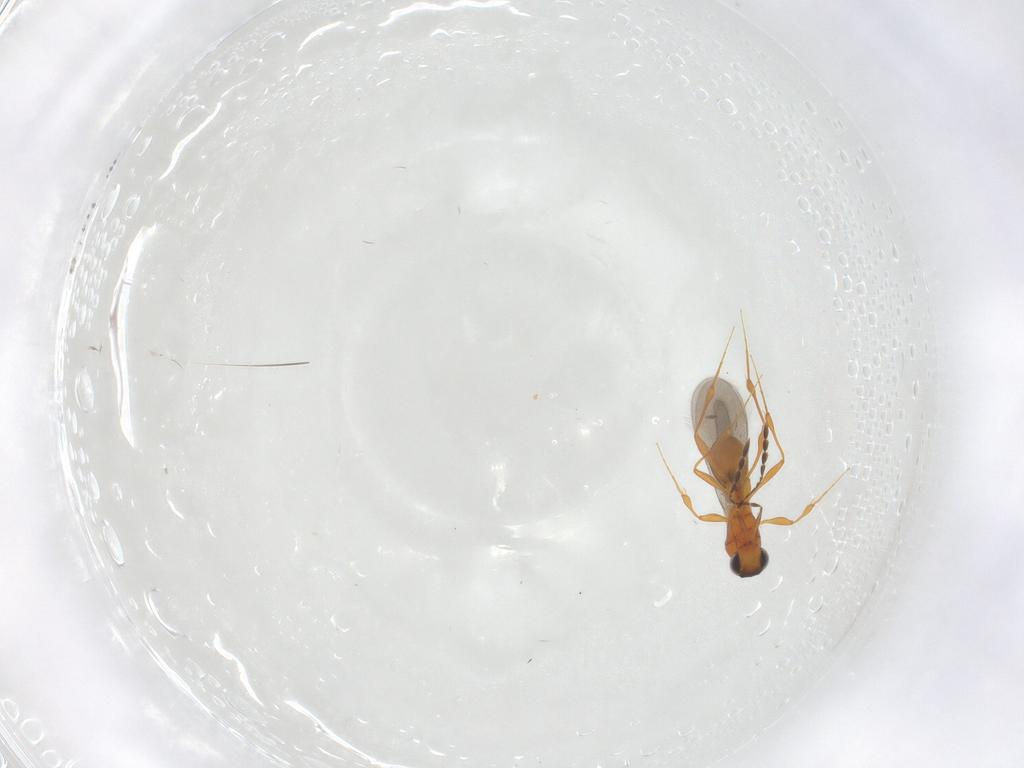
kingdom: Animalia
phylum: Arthropoda
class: Insecta
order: Hymenoptera
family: Platygastridae
